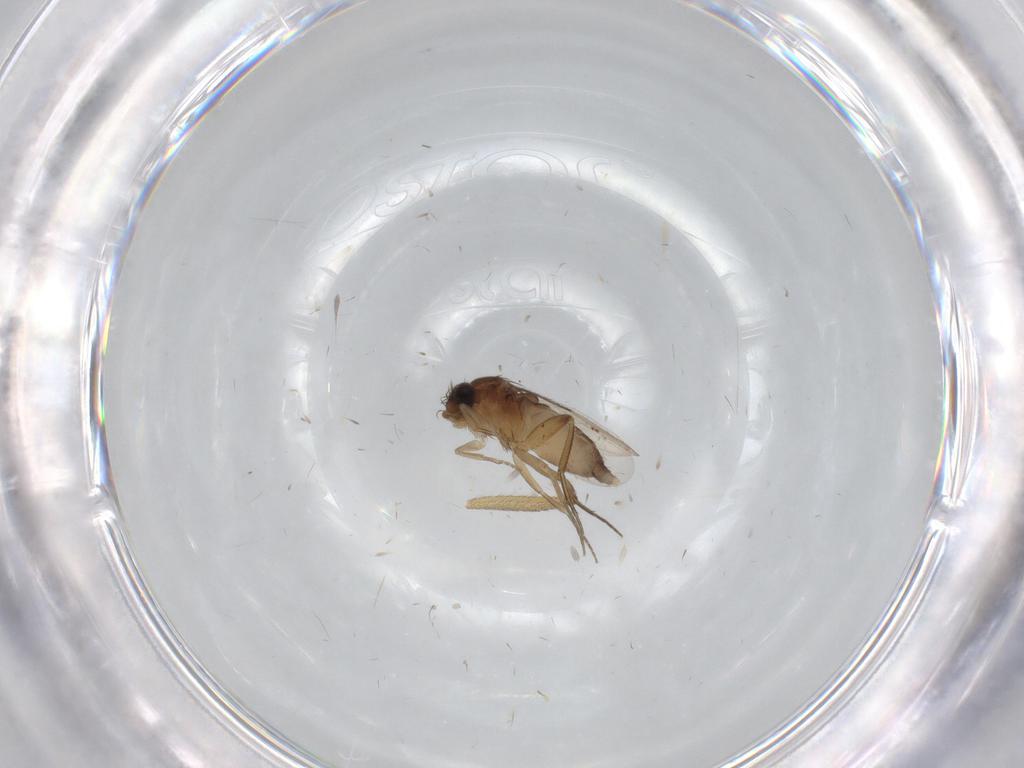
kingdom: Animalia
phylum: Arthropoda
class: Insecta
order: Diptera
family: Phoridae
